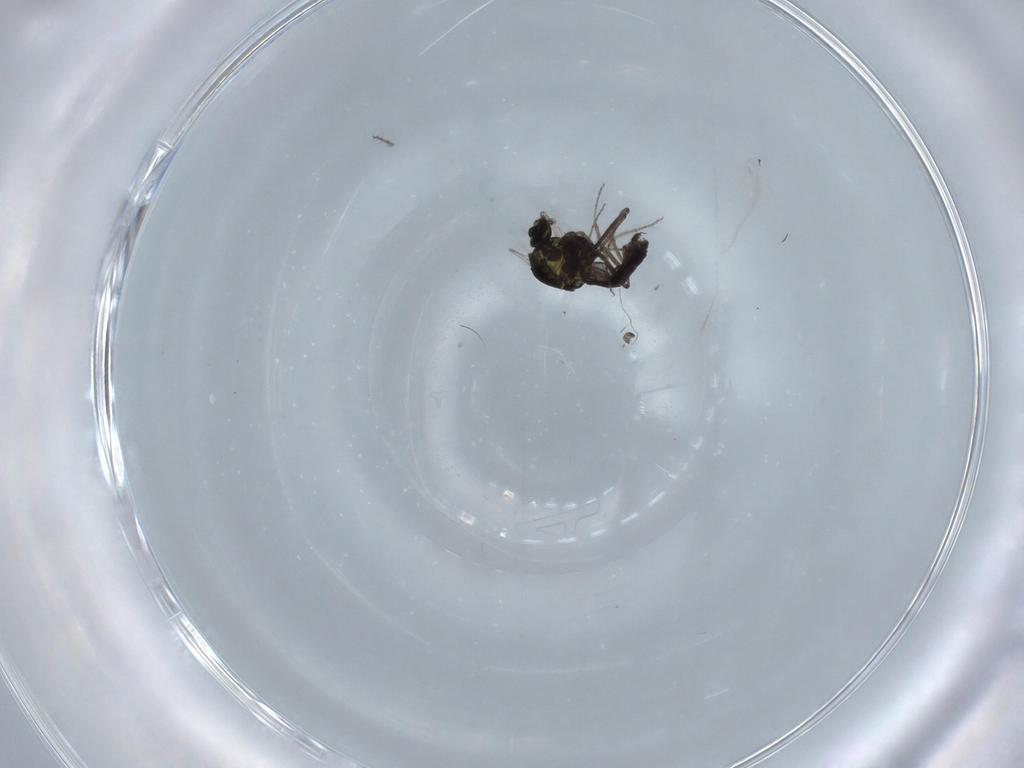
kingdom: Animalia
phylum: Arthropoda
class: Insecta
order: Diptera
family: Ceratopogonidae
